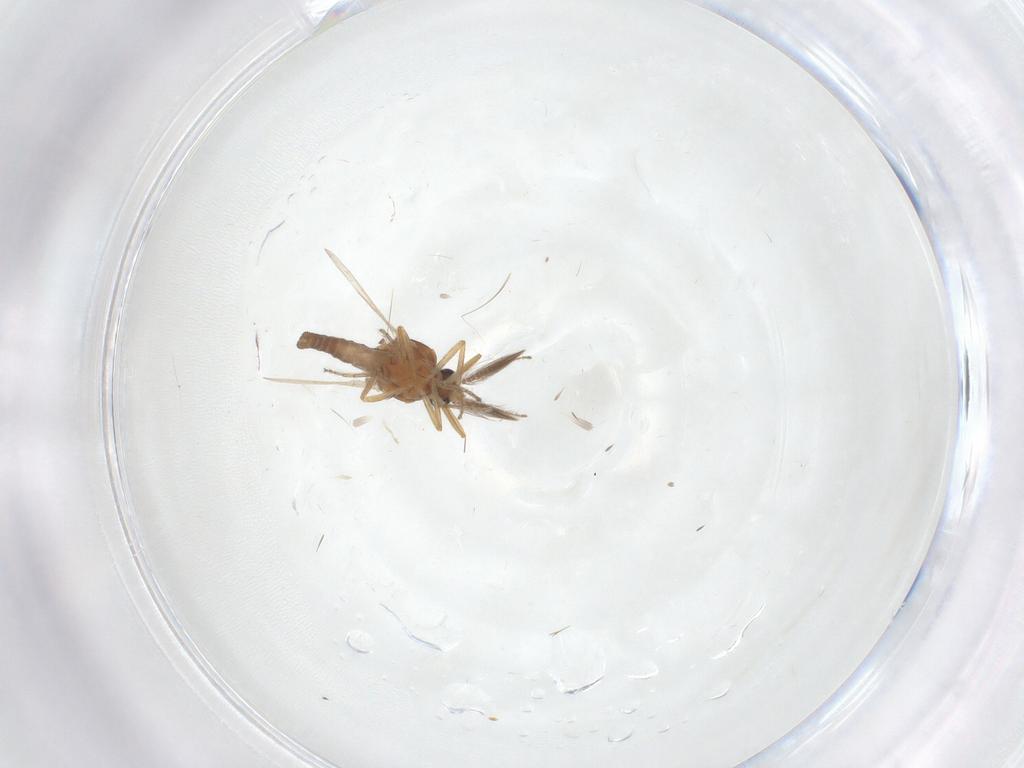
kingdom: Animalia
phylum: Arthropoda
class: Insecta
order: Diptera
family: Ceratopogonidae
